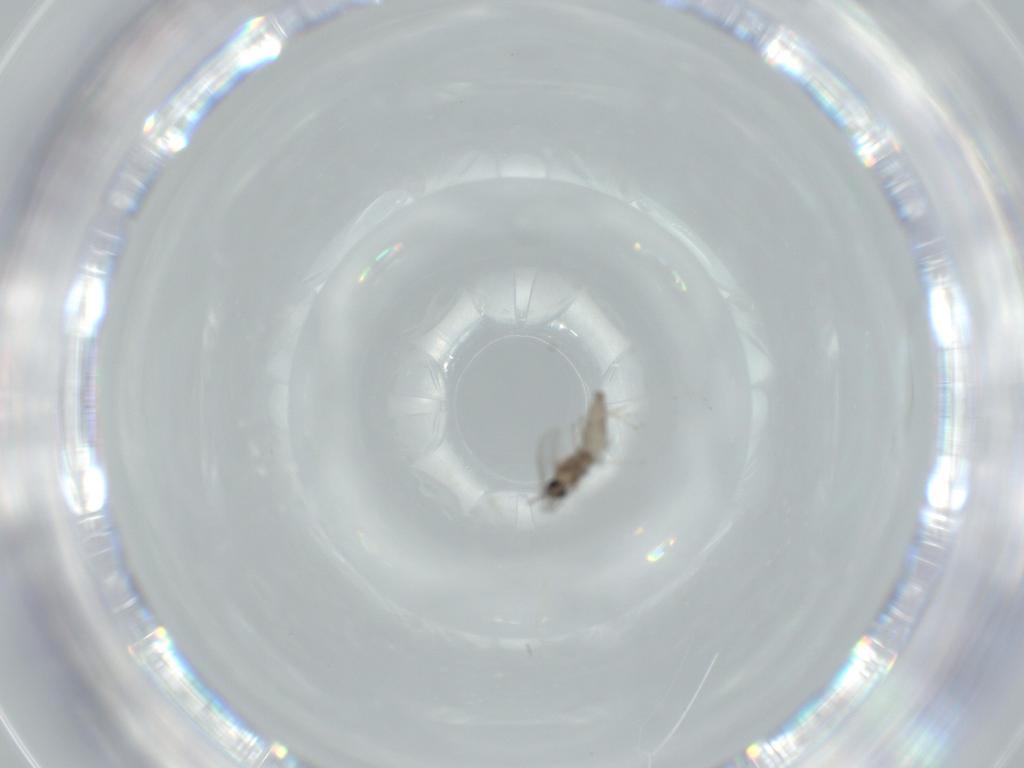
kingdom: Animalia
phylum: Arthropoda
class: Insecta
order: Diptera
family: Cecidomyiidae
